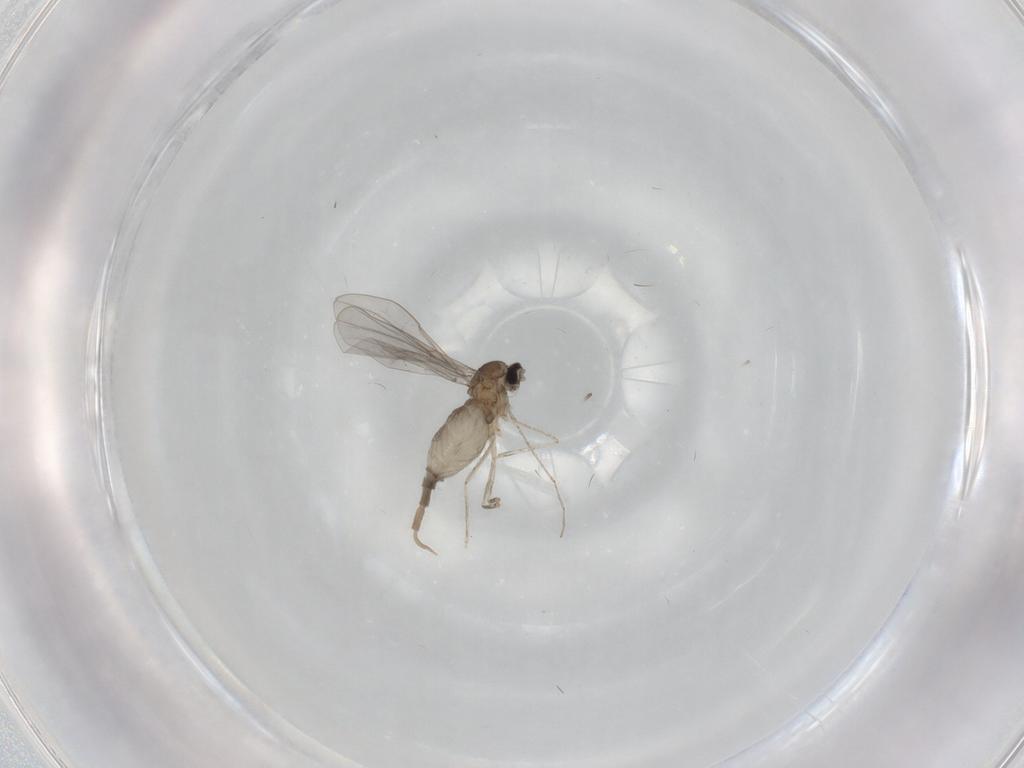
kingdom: Animalia
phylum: Arthropoda
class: Insecta
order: Diptera
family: Cecidomyiidae
